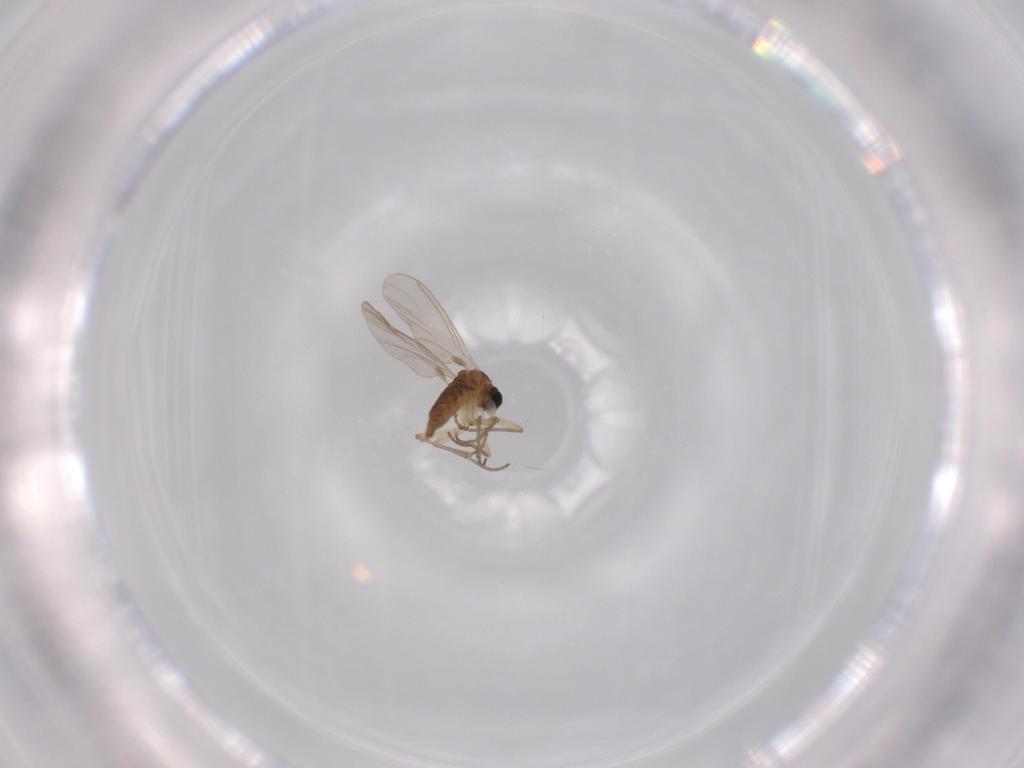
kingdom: Animalia
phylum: Arthropoda
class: Insecta
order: Diptera
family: Sciaridae
